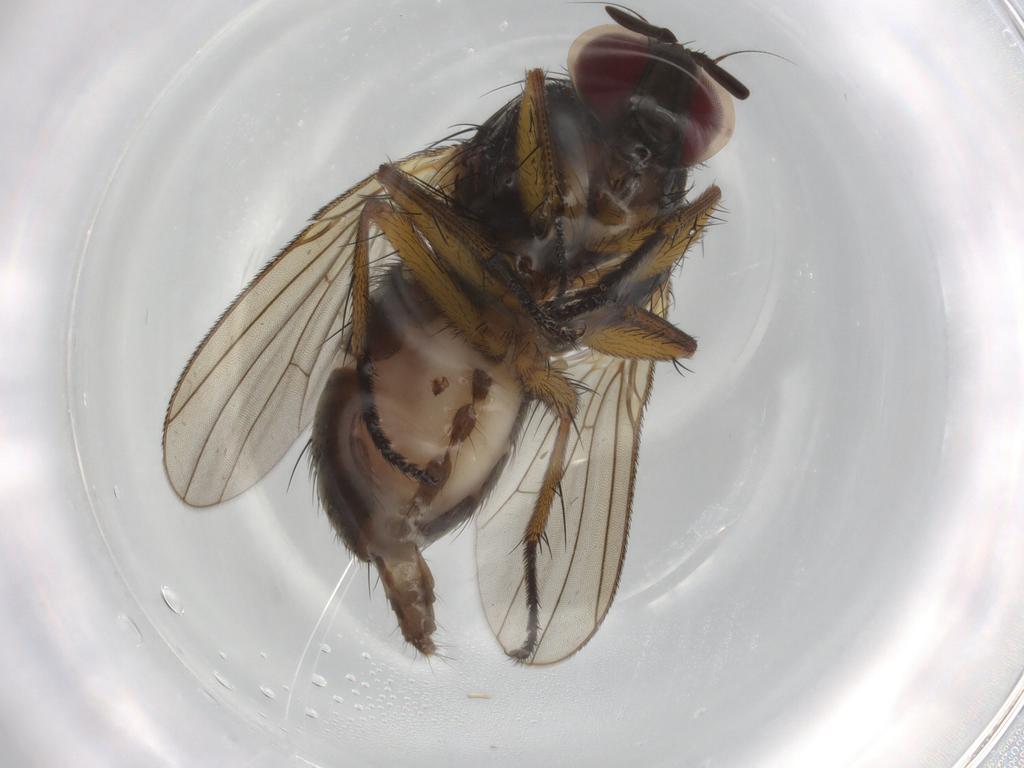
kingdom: Animalia
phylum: Arthropoda
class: Insecta
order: Diptera
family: Muscidae
